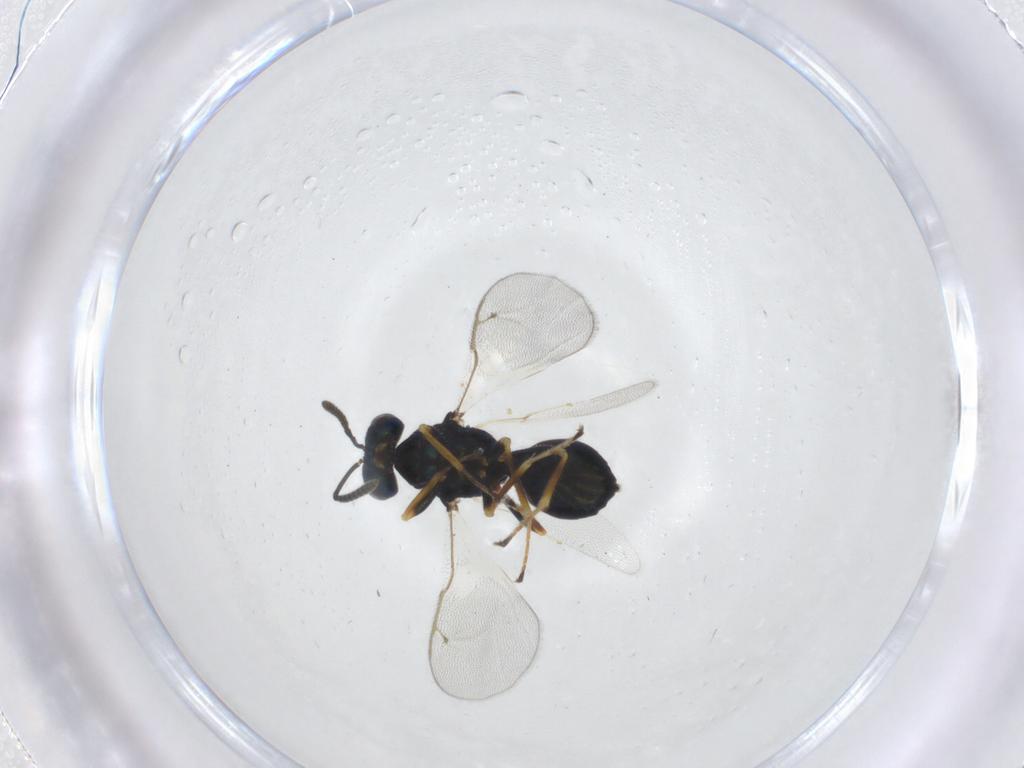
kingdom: Animalia
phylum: Arthropoda
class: Insecta
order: Hymenoptera
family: Pteromalidae
